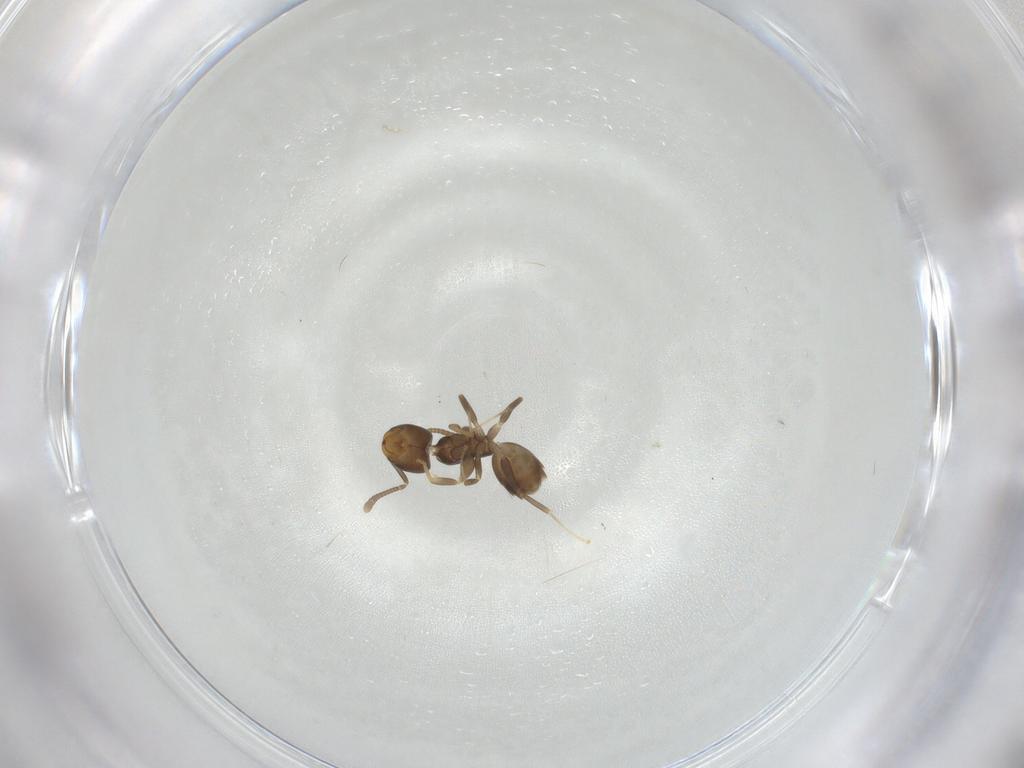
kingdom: Animalia
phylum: Arthropoda
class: Insecta
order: Hymenoptera
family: Formicidae
